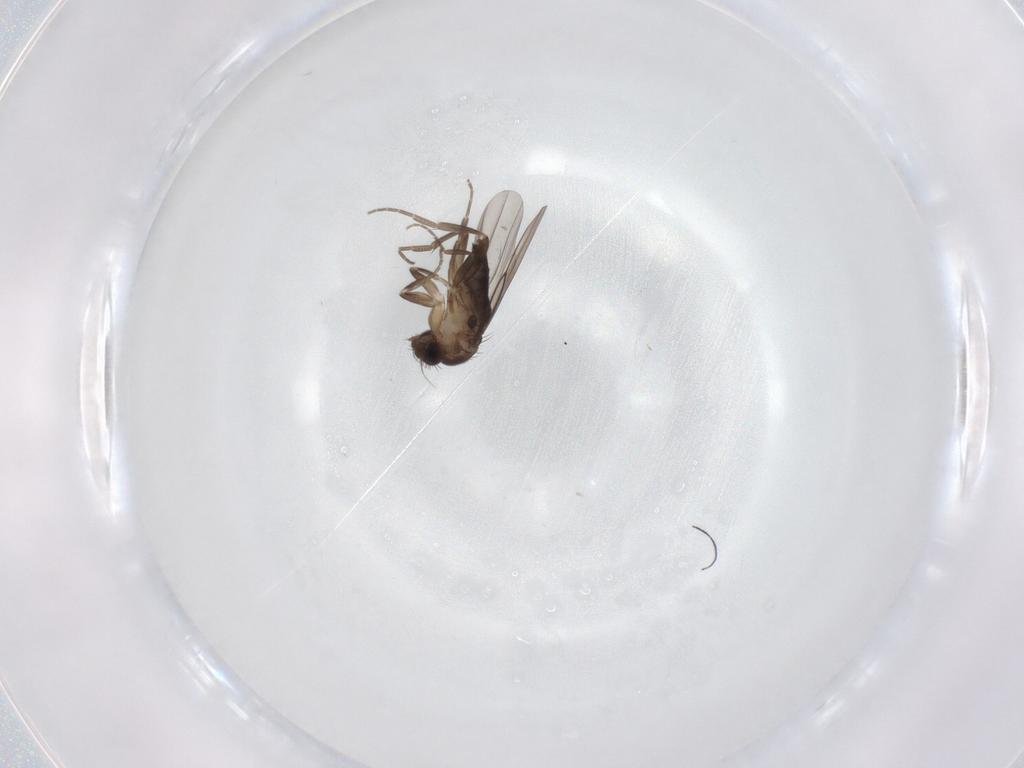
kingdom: Animalia
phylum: Arthropoda
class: Insecta
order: Diptera
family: Cecidomyiidae
